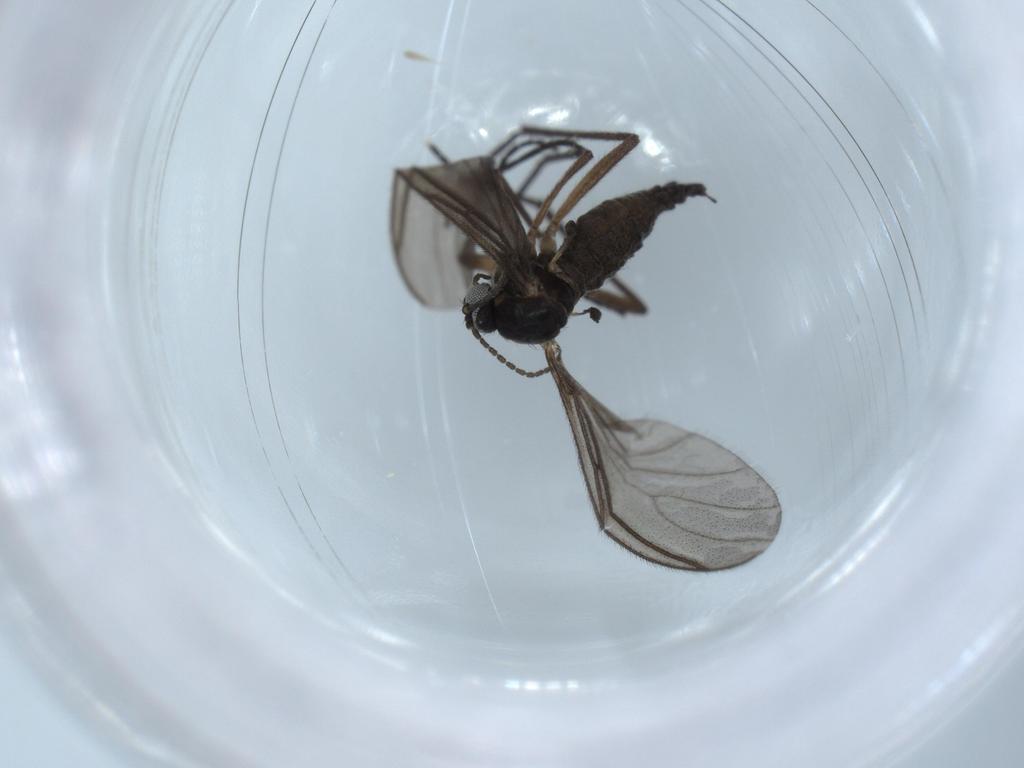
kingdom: Animalia
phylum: Arthropoda
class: Insecta
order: Diptera
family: Sciaridae
